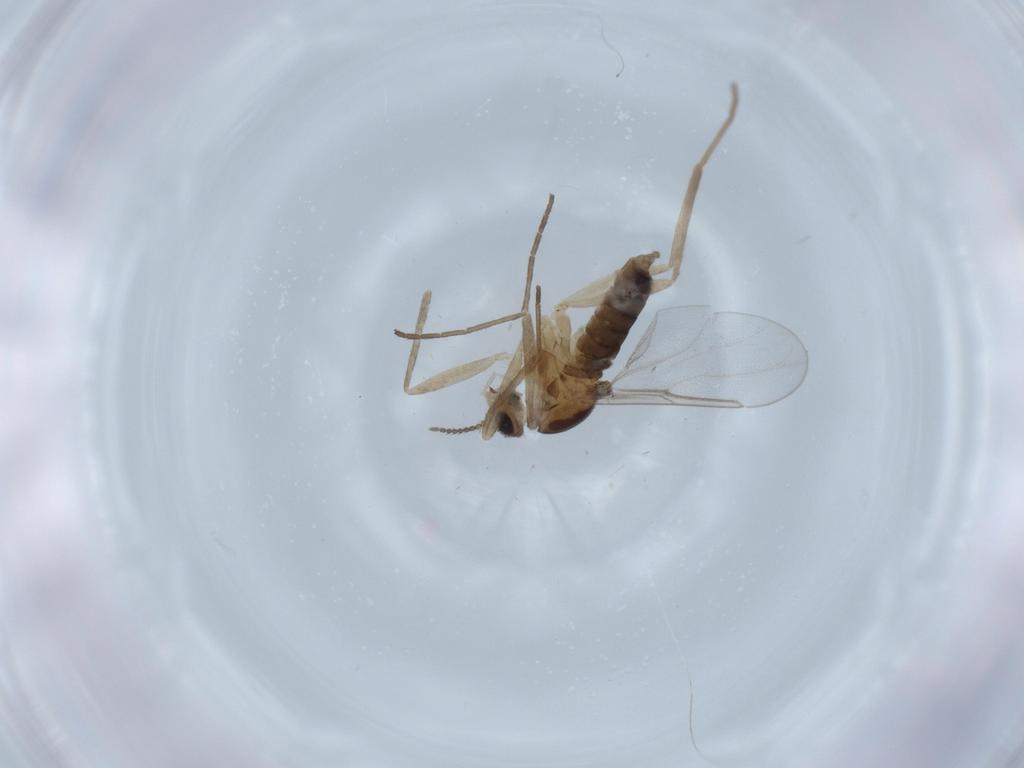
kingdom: Animalia
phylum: Arthropoda
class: Insecta
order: Diptera
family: Cecidomyiidae
